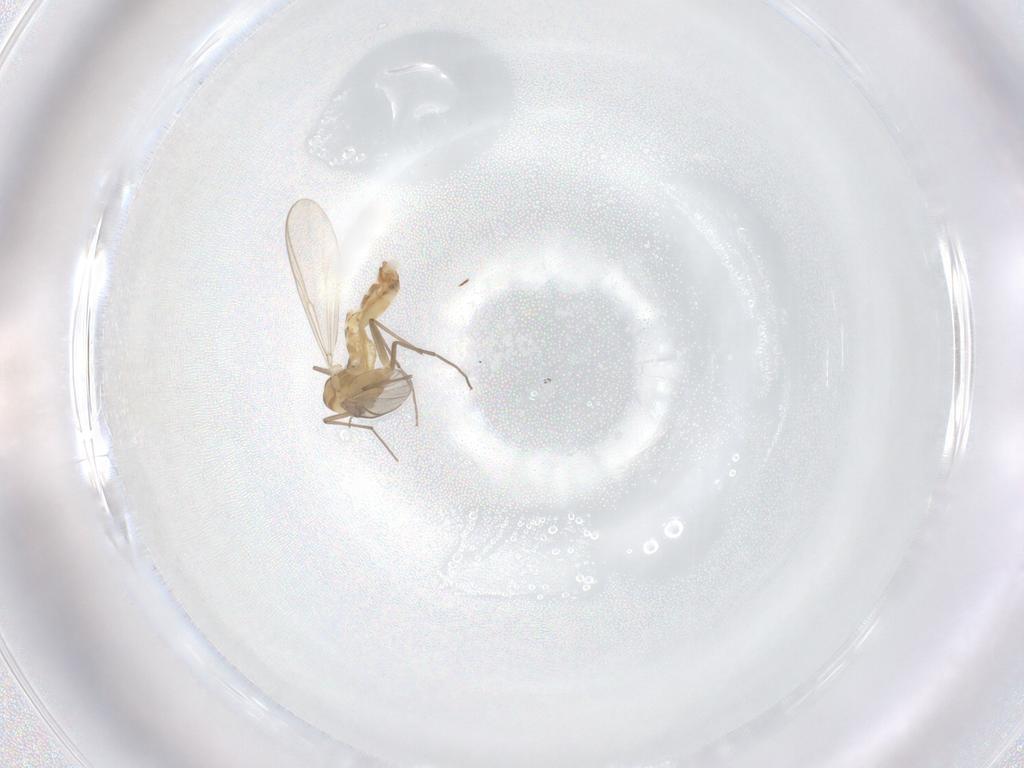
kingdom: Animalia
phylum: Arthropoda
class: Insecta
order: Diptera
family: Chironomidae
